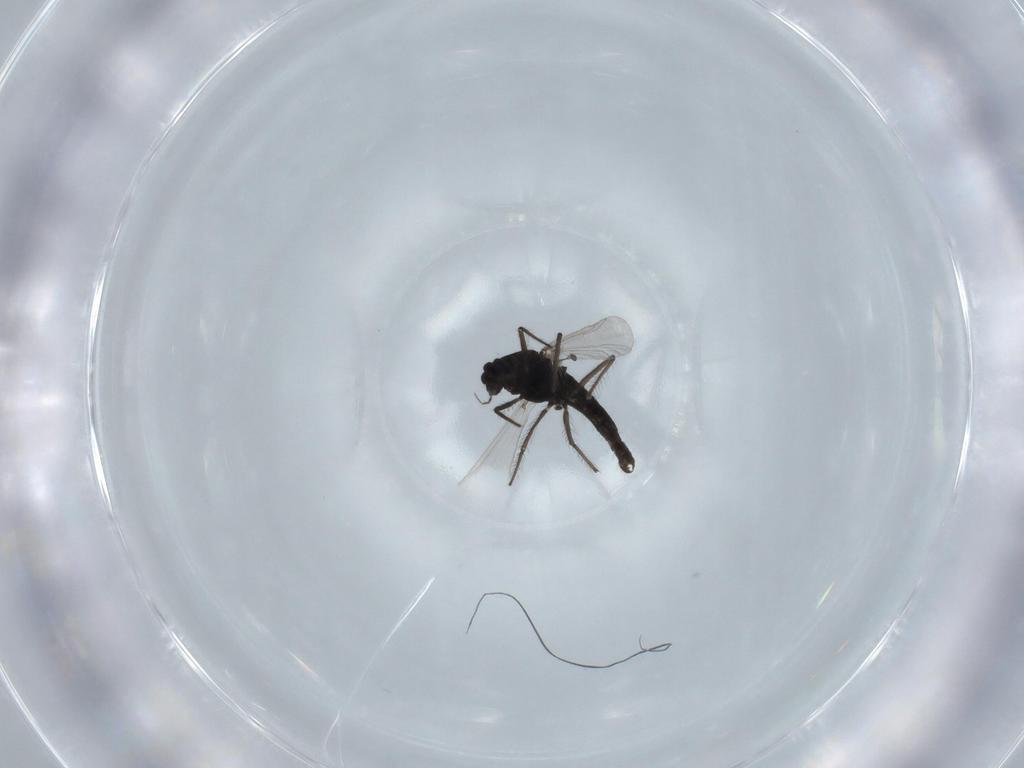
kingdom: Animalia
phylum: Arthropoda
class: Insecta
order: Diptera
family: Chironomidae
